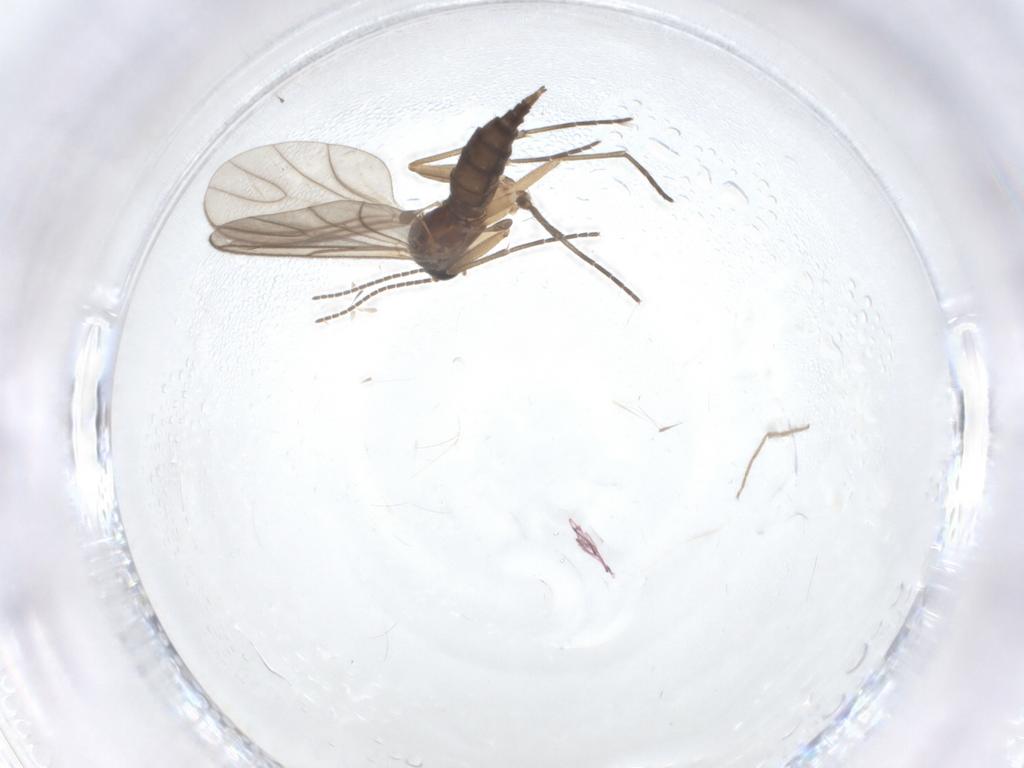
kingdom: Animalia
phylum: Arthropoda
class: Insecta
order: Diptera
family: Sciaridae
